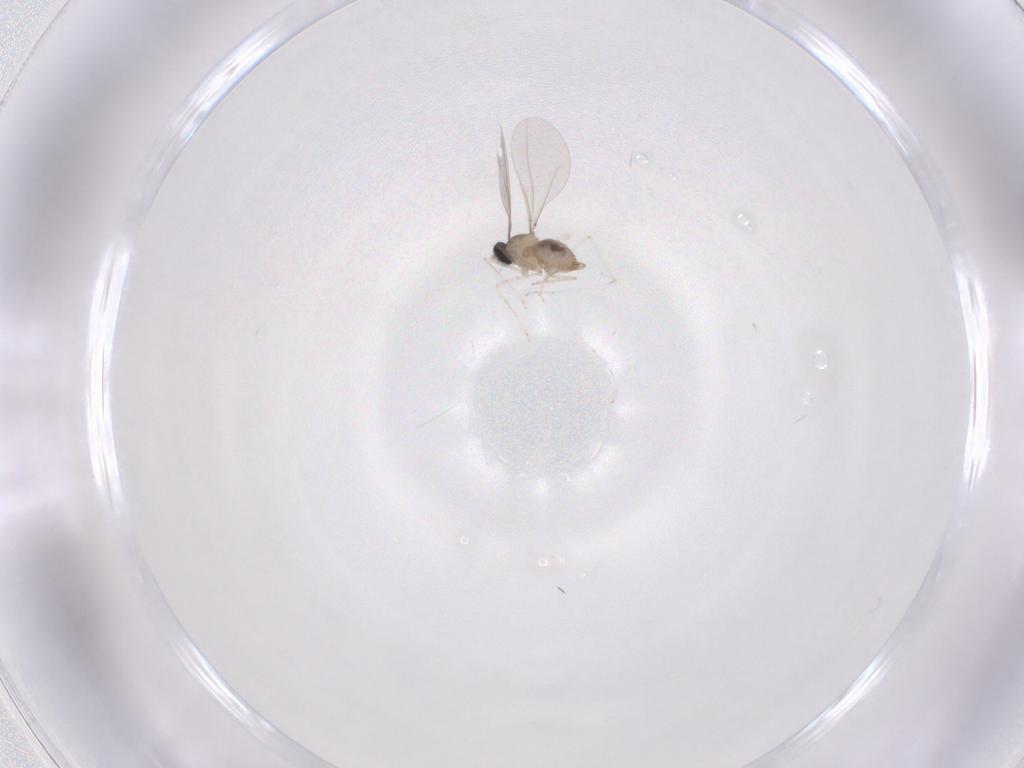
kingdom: Animalia
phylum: Arthropoda
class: Insecta
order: Diptera
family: Cecidomyiidae
